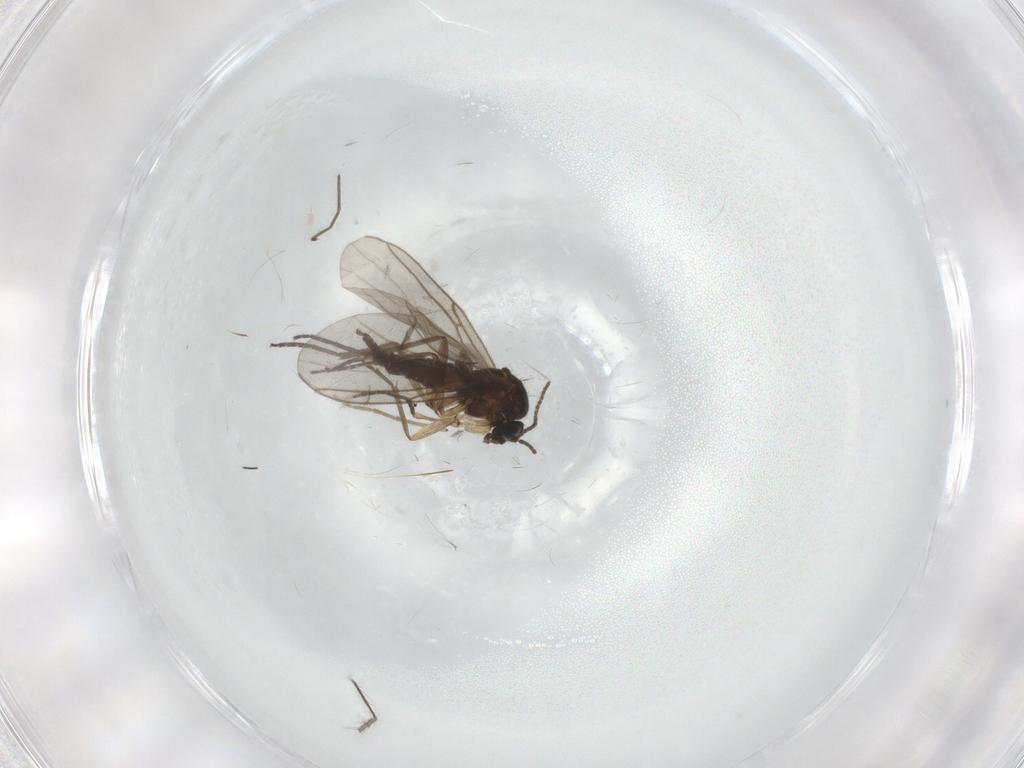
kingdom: Animalia
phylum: Arthropoda
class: Insecta
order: Diptera
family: Sciaridae
